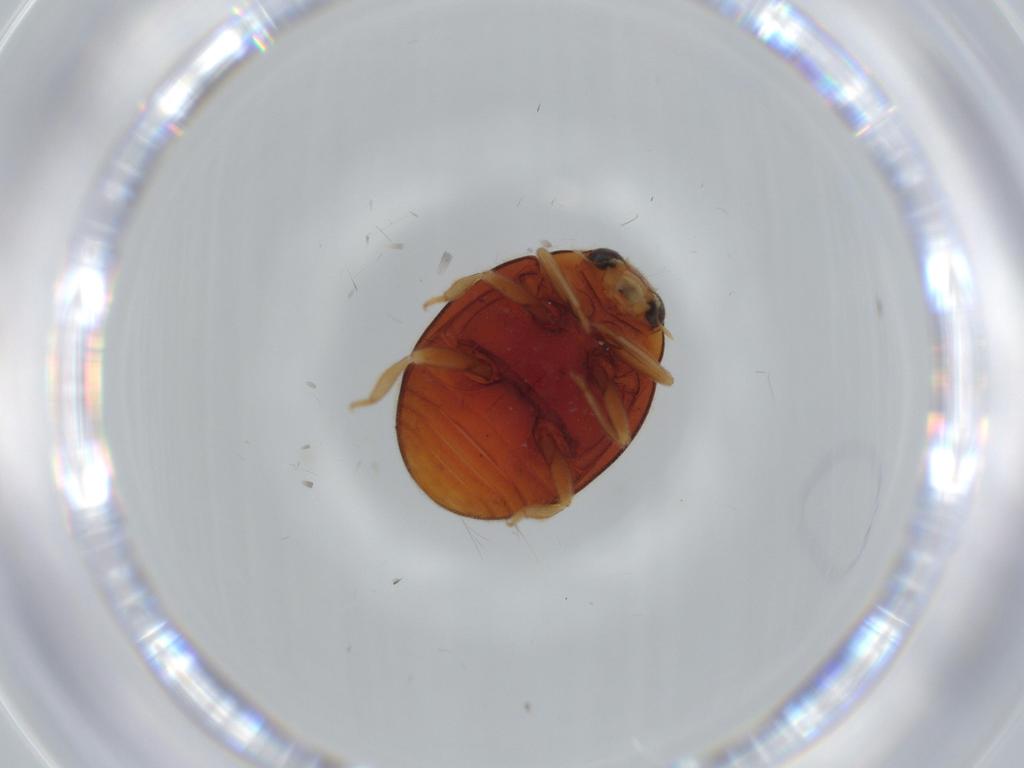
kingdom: Animalia
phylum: Arthropoda
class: Insecta
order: Coleoptera
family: Coccinellidae
